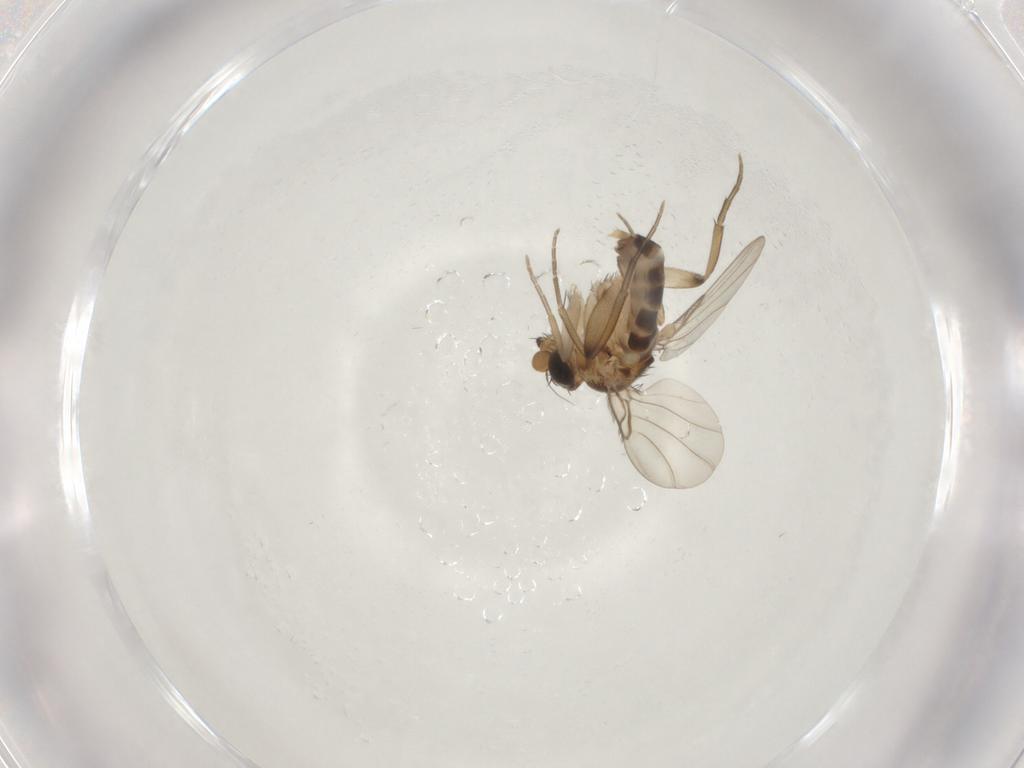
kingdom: Animalia
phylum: Arthropoda
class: Insecta
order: Diptera
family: Phoridae
